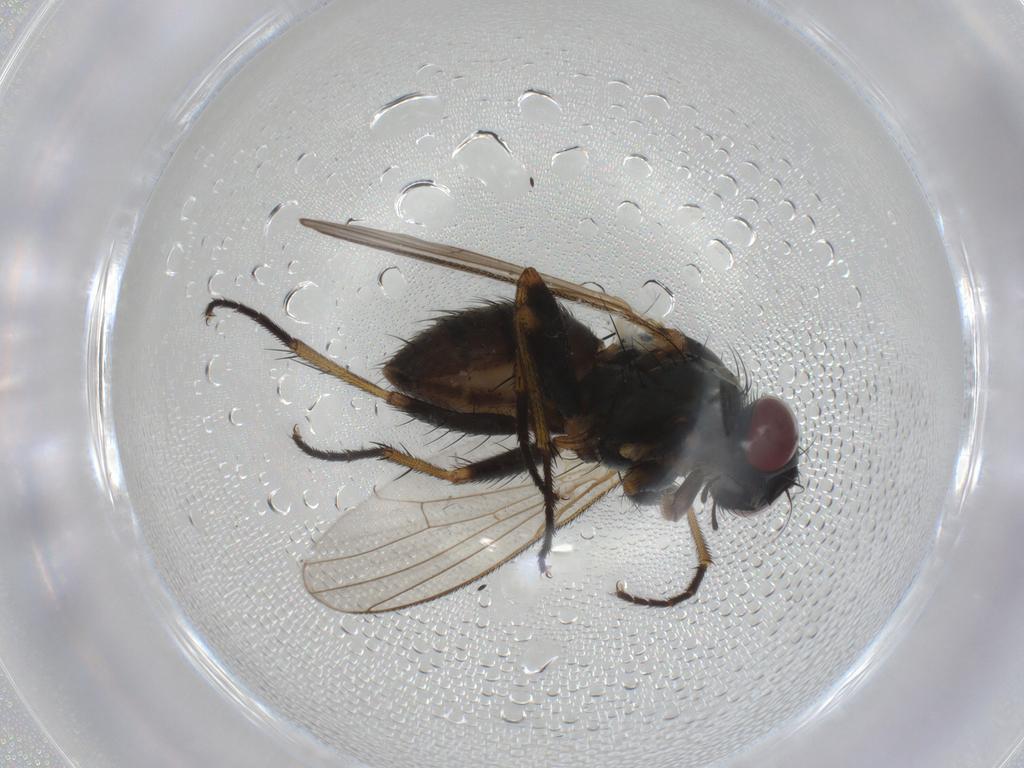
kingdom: Animalia
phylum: Arthropoda
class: Insecta
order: Diptera
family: Muscidae
